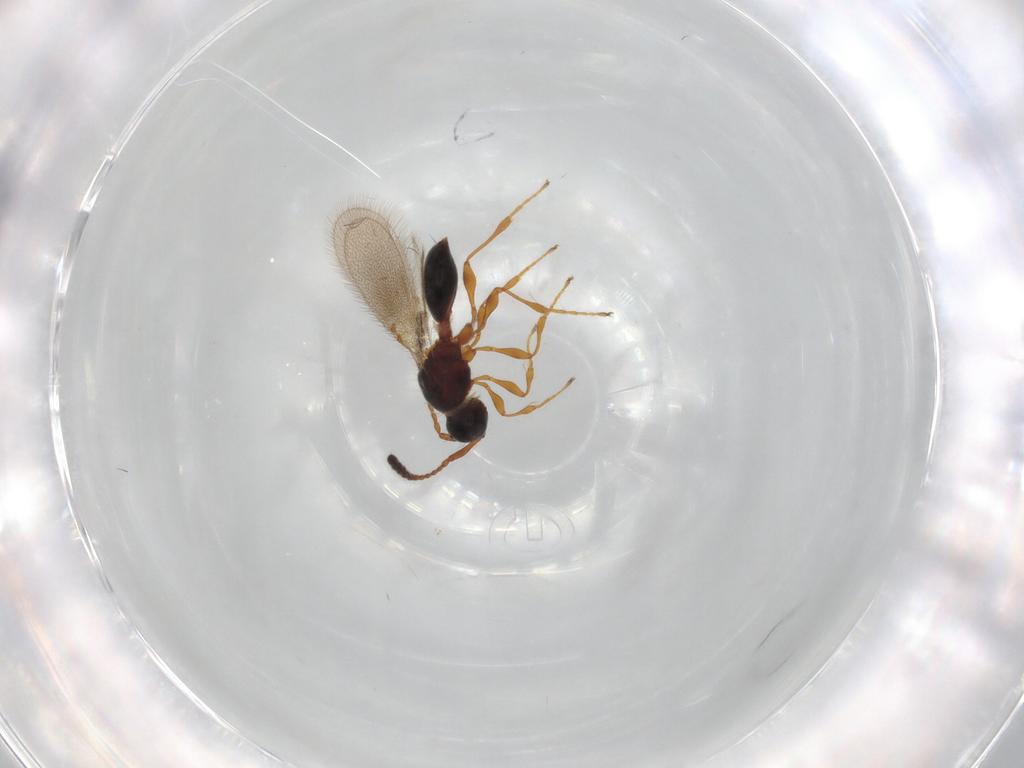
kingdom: Animalia
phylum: Arthropoda
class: Insecta
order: Hymenoptera
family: Diapriidae
